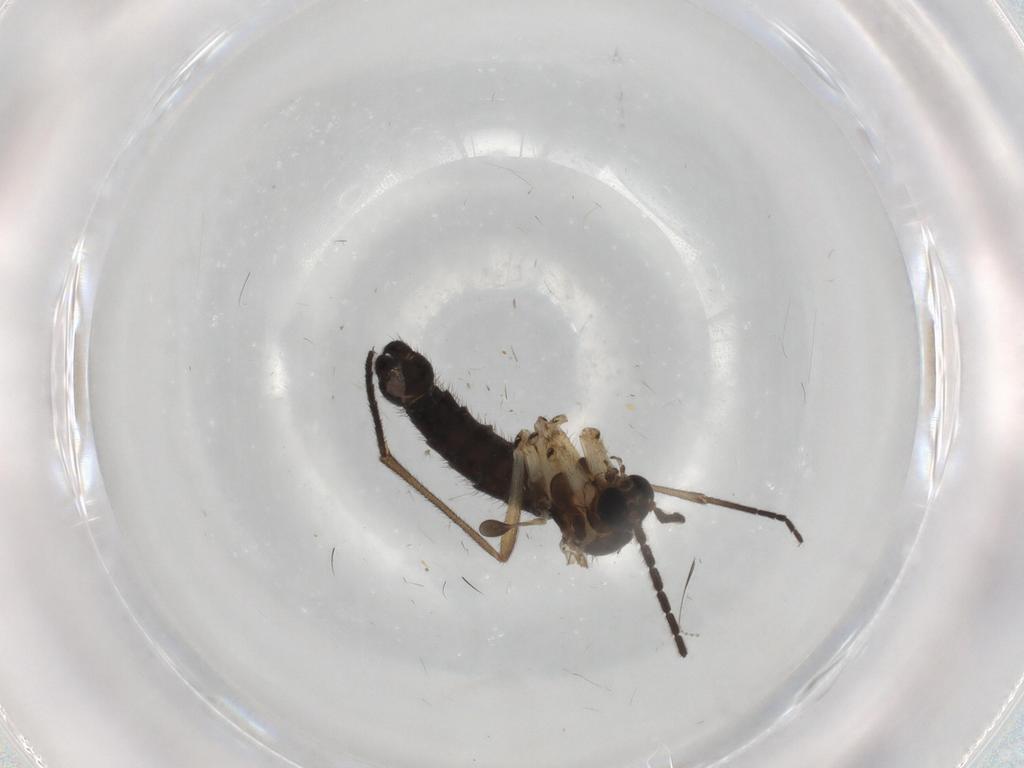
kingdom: Animalia
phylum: Arthropoda
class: Insecta
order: Diptera
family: Sciaridae
